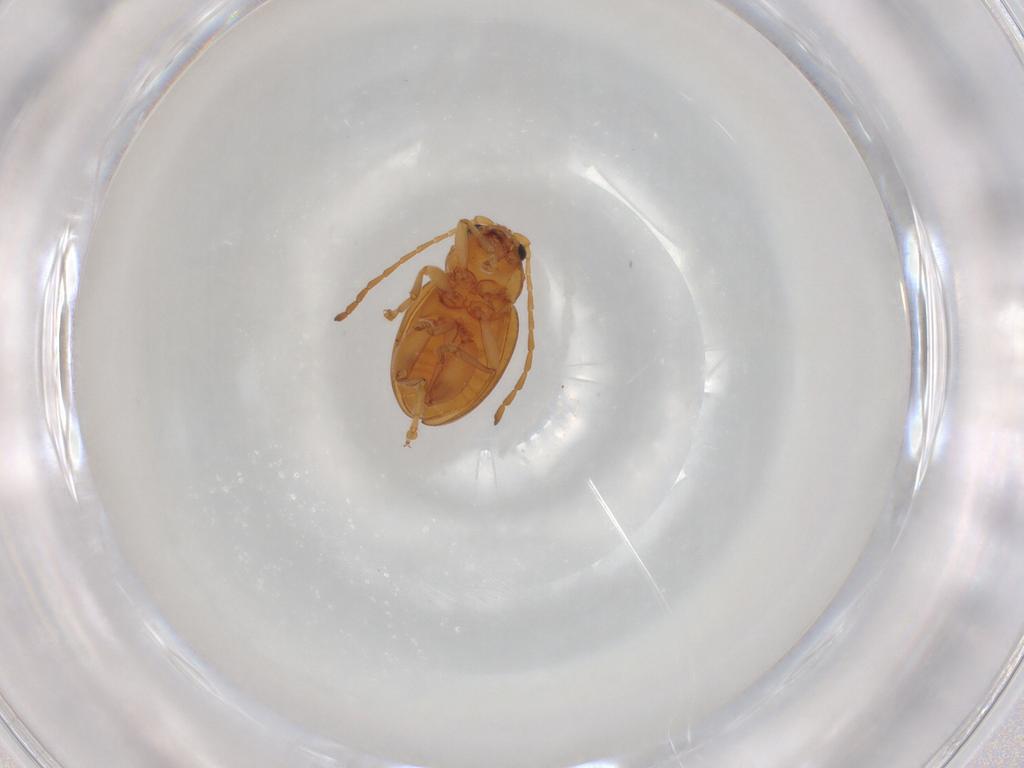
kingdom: Animalia
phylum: Arthropoda
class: Insecta
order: Coleoptera
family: Chrysomelidae
